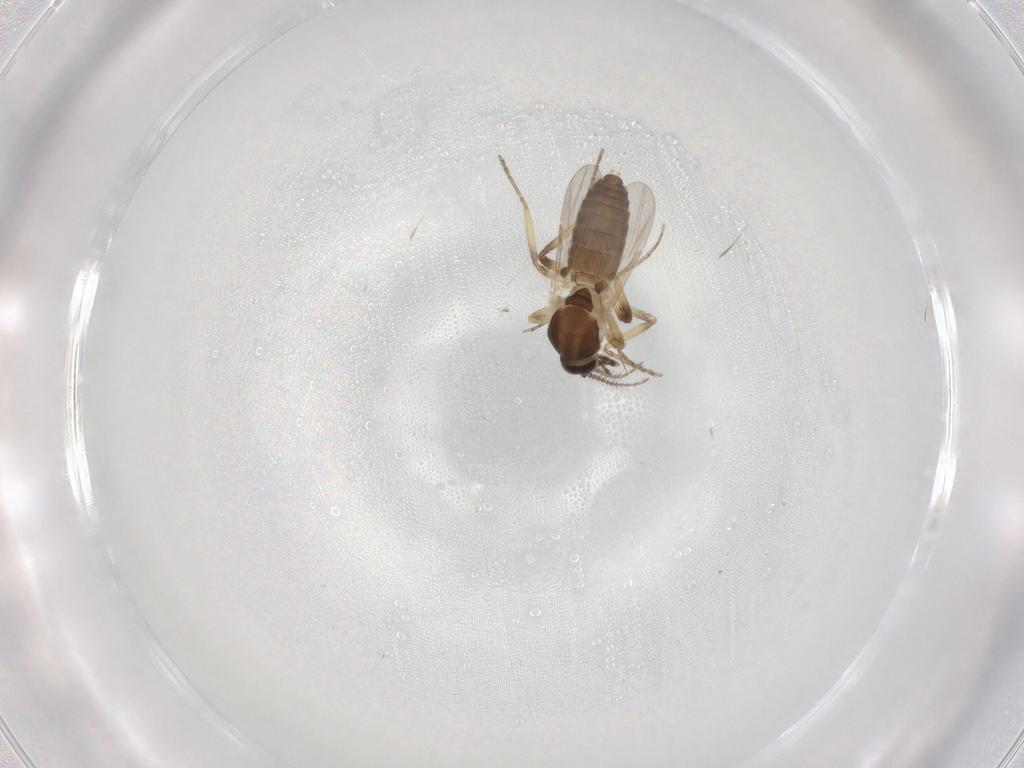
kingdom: Animalia
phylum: Arthropoda
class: Insecta
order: Diptera
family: Ceratopogonidae
